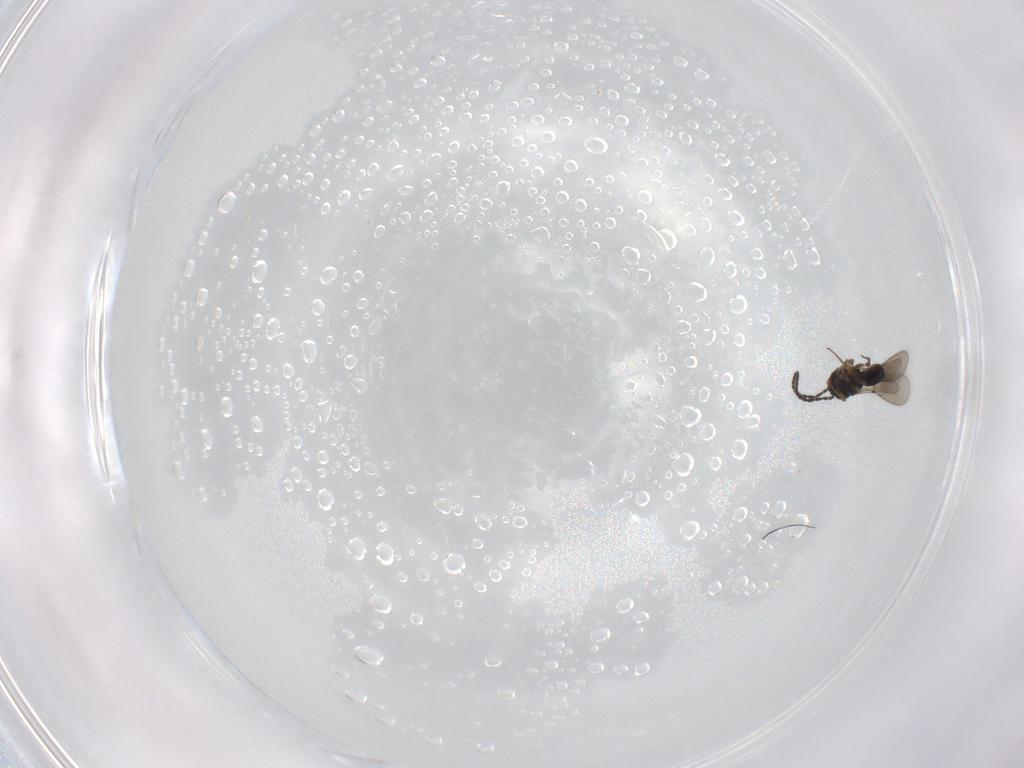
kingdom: Animalia
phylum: Arthropoda
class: Insecta
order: Hymenoptera
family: Scelionidae
